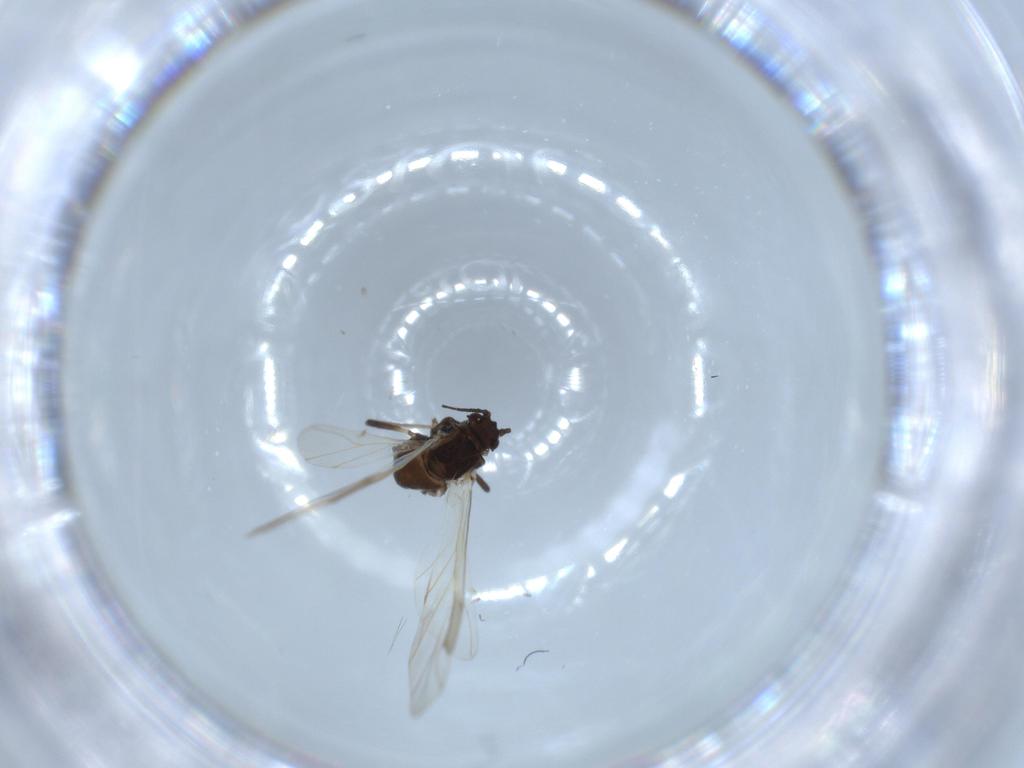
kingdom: Animalia
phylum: Arthropoda
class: Insecta
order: Hemiptera
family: Aphididae
